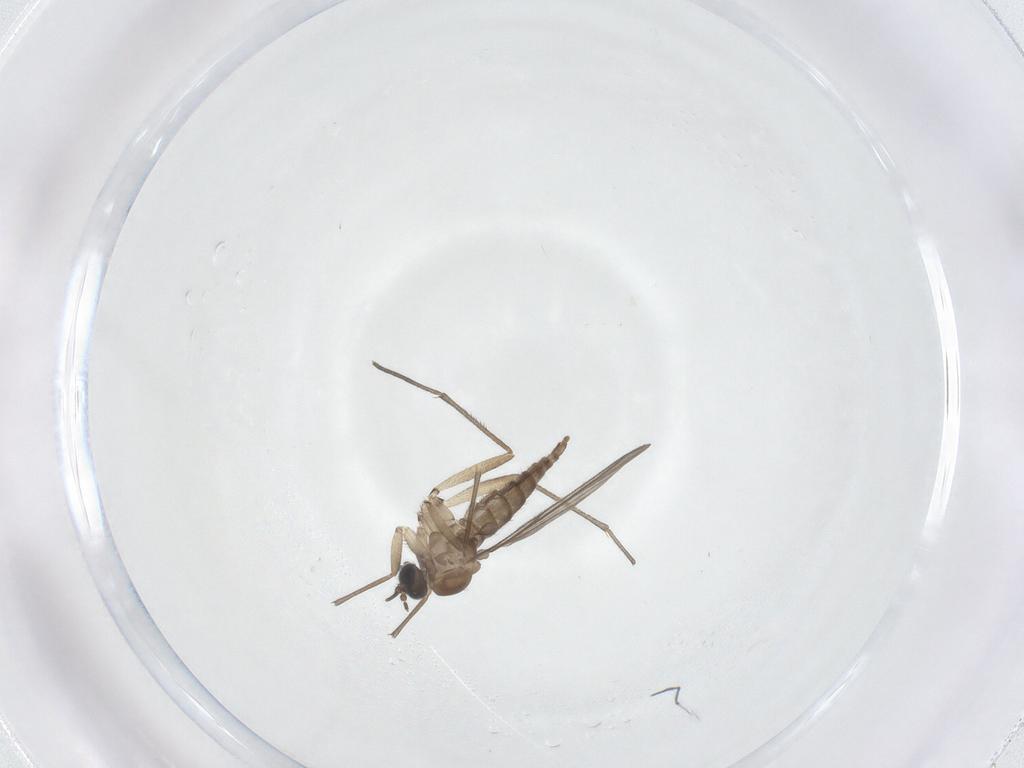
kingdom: Animalia
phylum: Arthropoda
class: Insecta
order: Diptera
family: Sciaridae
